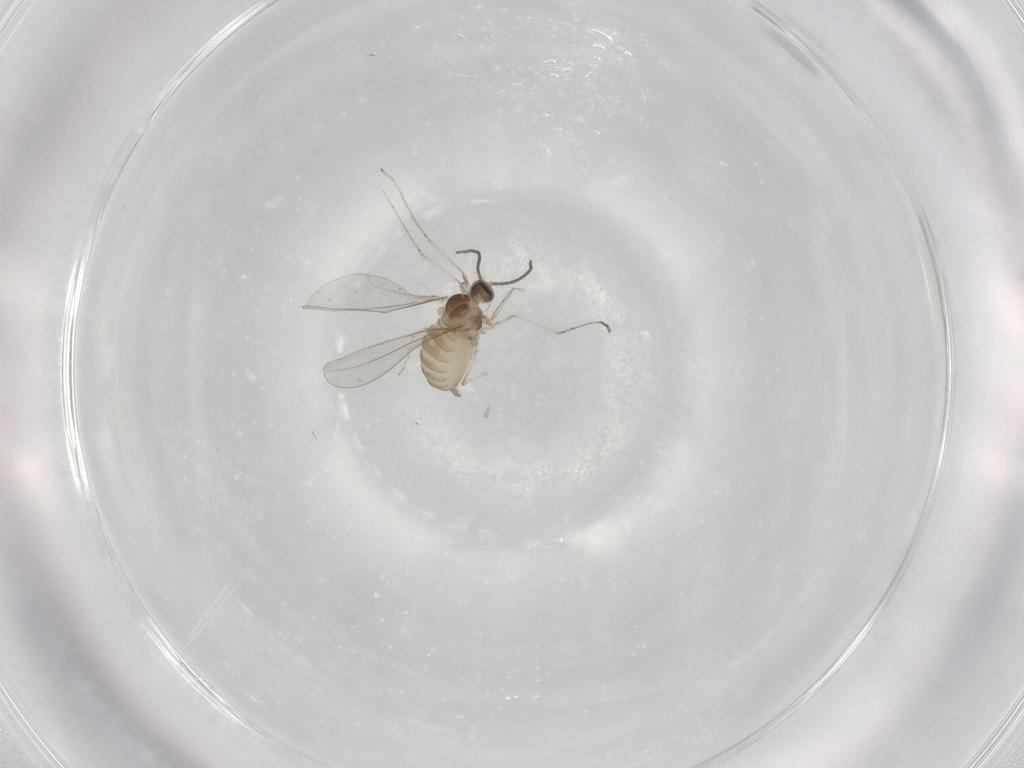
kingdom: Animalia
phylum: Arthropoda
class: Insecta
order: Diptera
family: Cecidomyiidae
